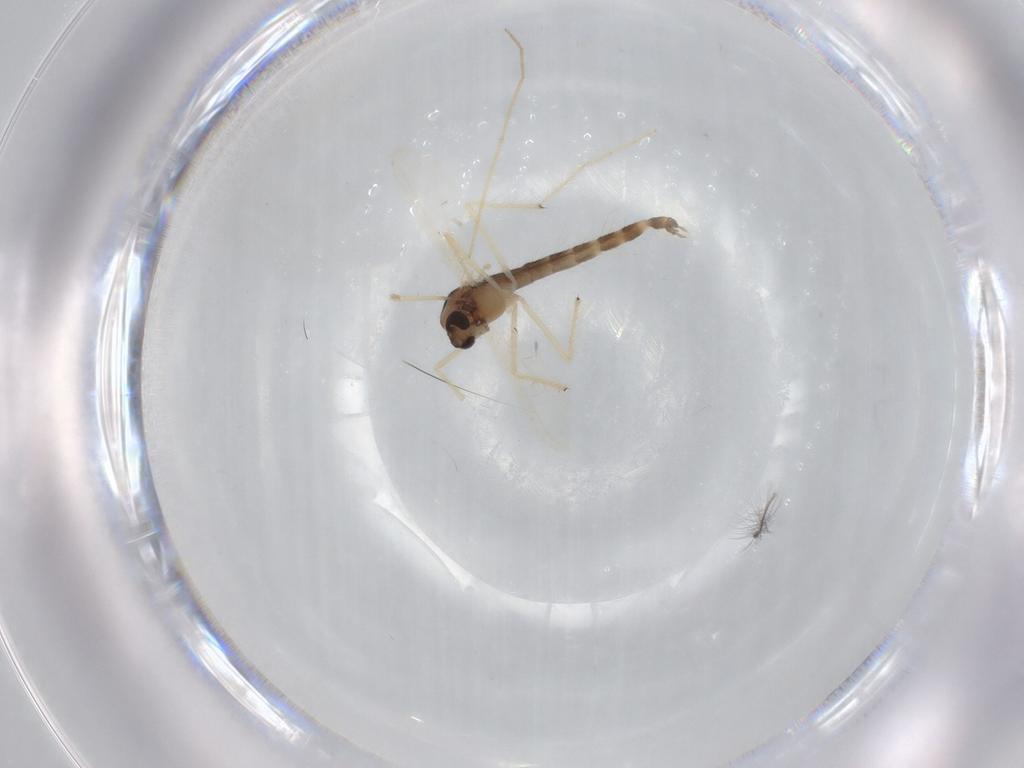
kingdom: Animalia
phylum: Arthropoda
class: Insecta
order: Diptera
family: Chironomidae
